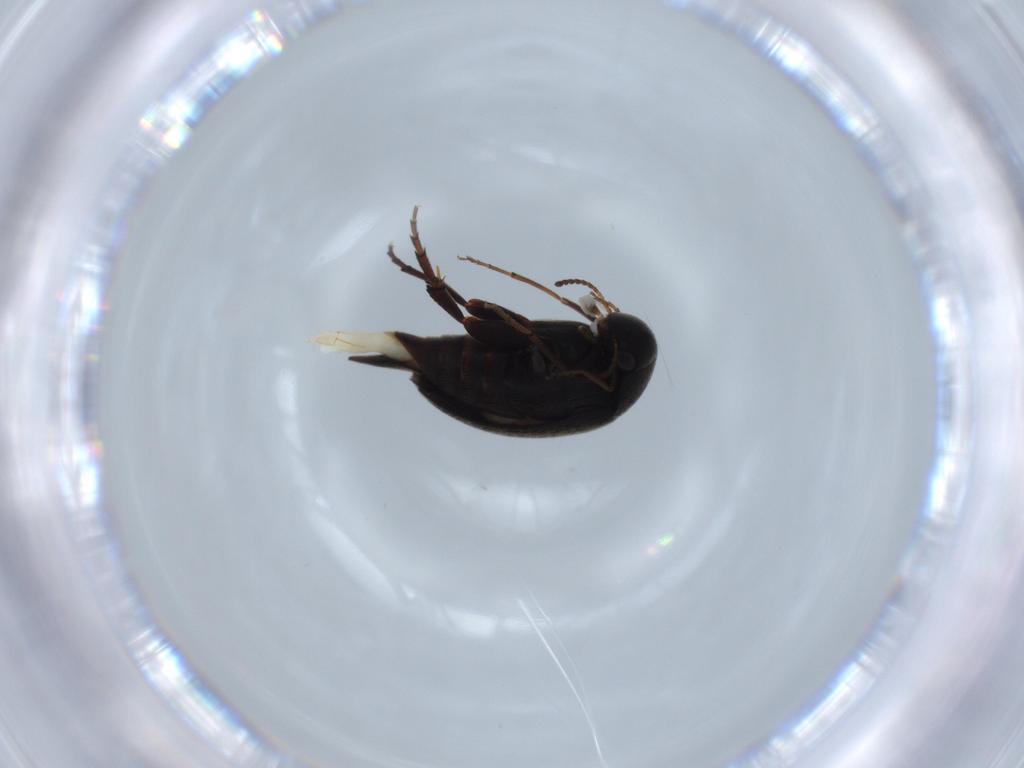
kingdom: Animalia
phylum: Arthropoda
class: Insecta
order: Coleoptera
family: Mordellidae
